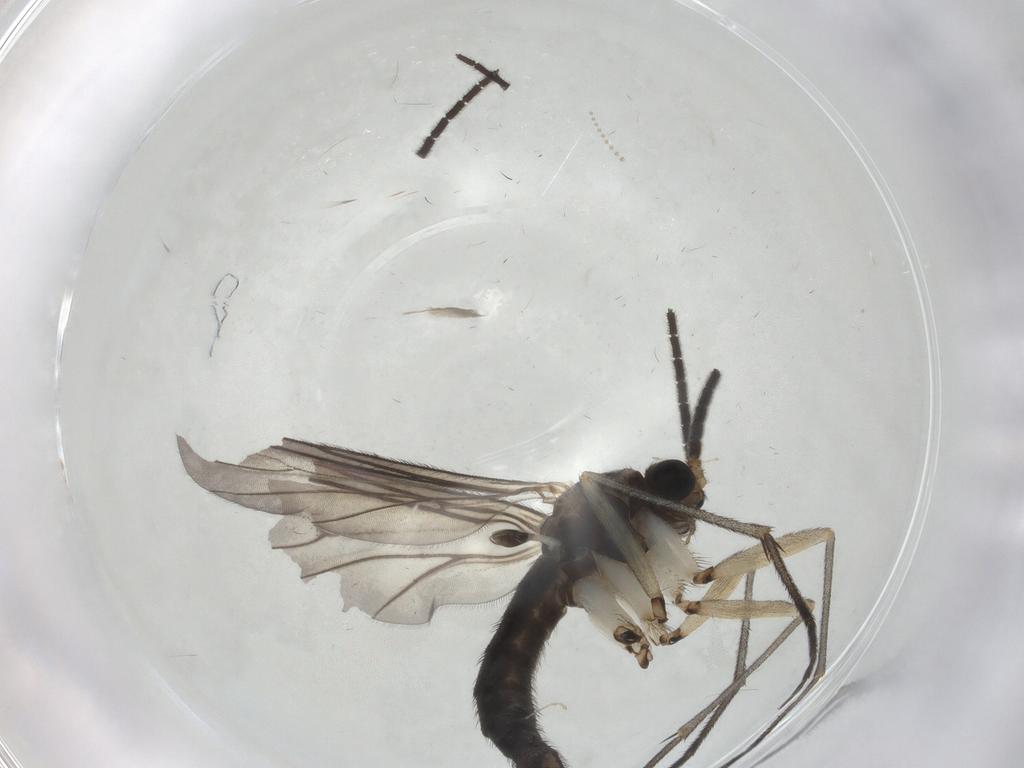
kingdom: Animalia
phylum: Arthropoda
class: Insecta
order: Diptera
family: Sciaridae
